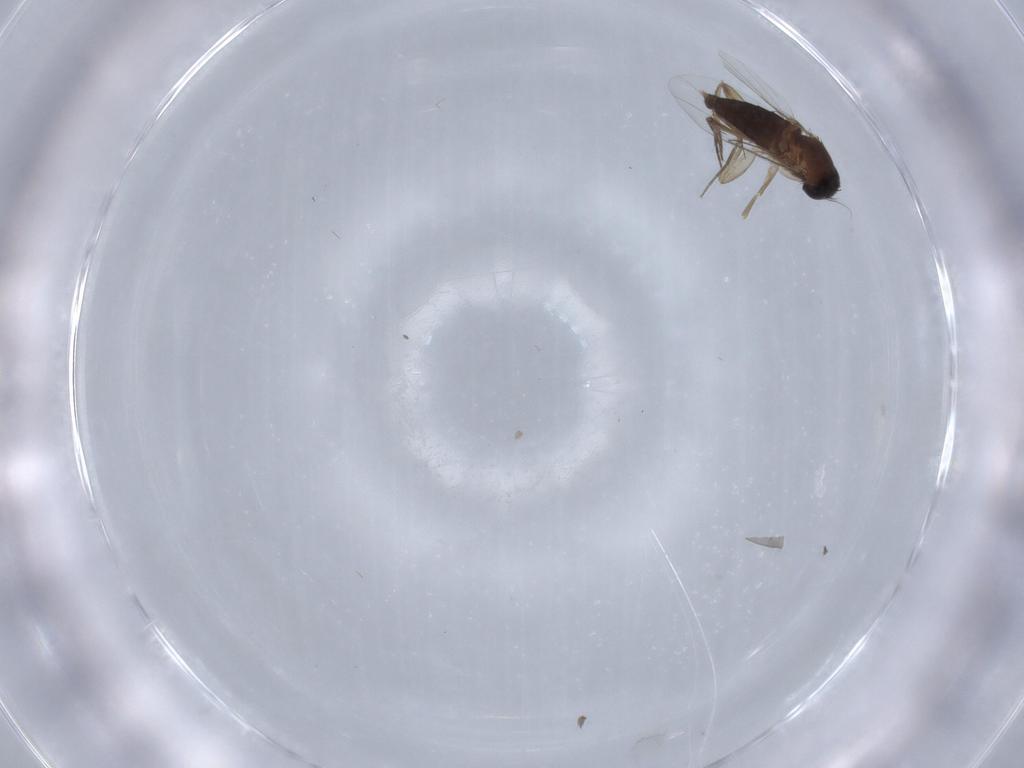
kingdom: Animalia
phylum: Arthropoda
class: Insecta
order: Diptera
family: Phoridae
